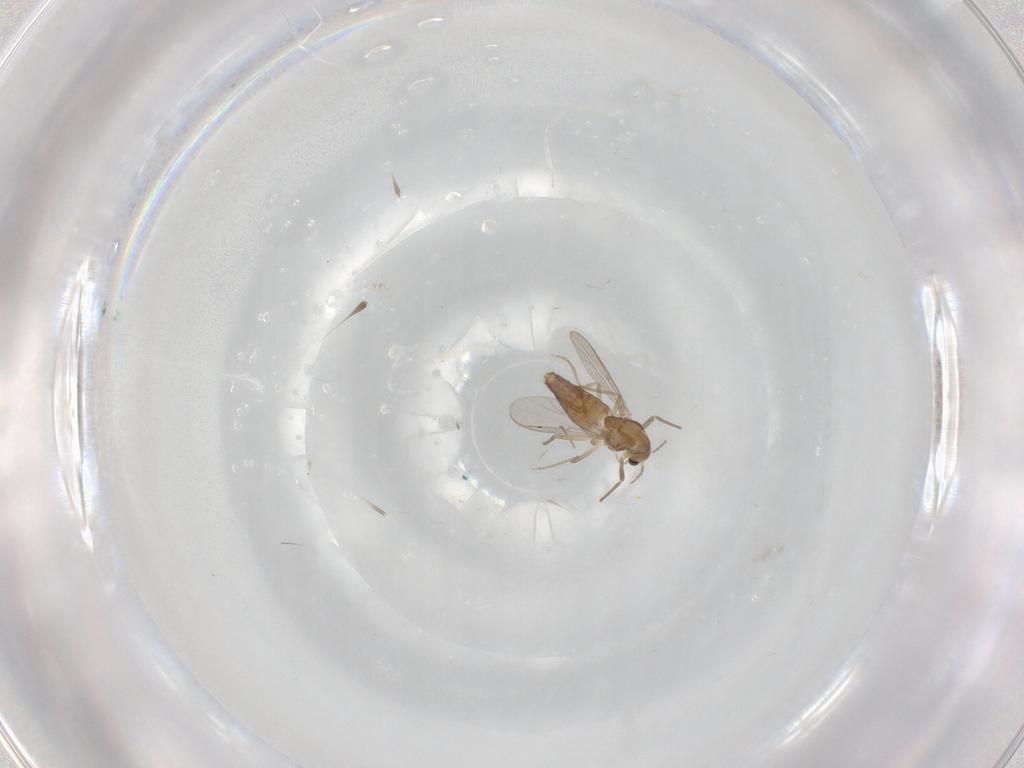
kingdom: Animalia
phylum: Arthropoda
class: Insecta
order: Diptera
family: Chironomidae
